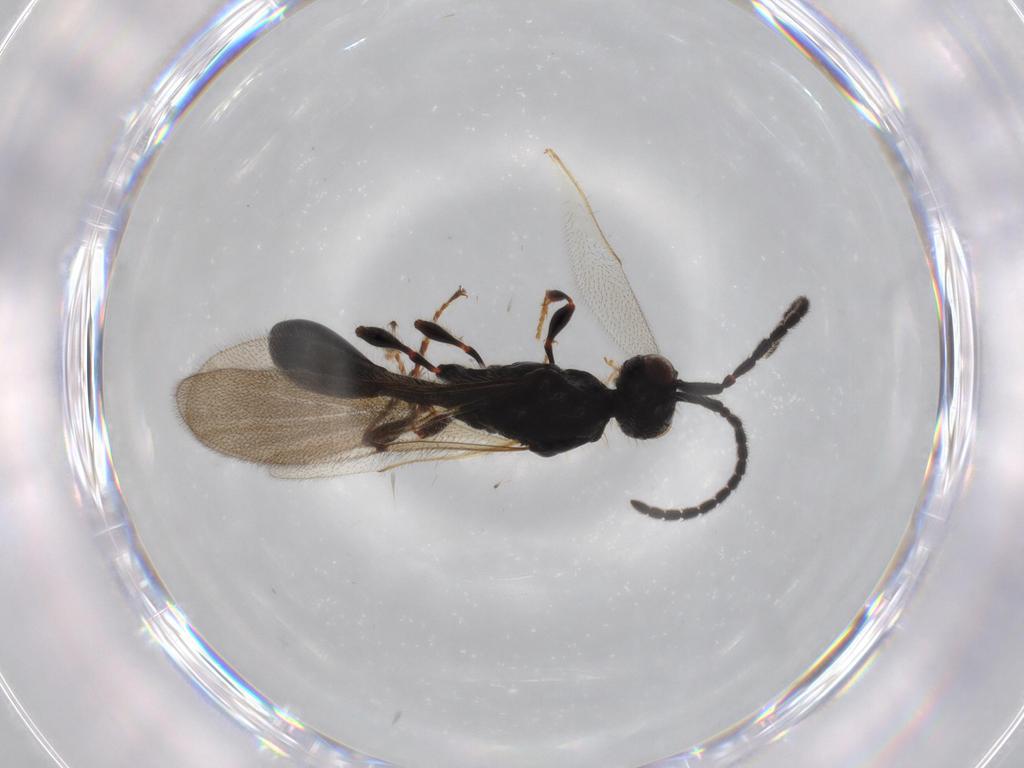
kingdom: Animalia
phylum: Arthropoda
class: Insecta
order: Hymenoptera
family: Diapriidae
